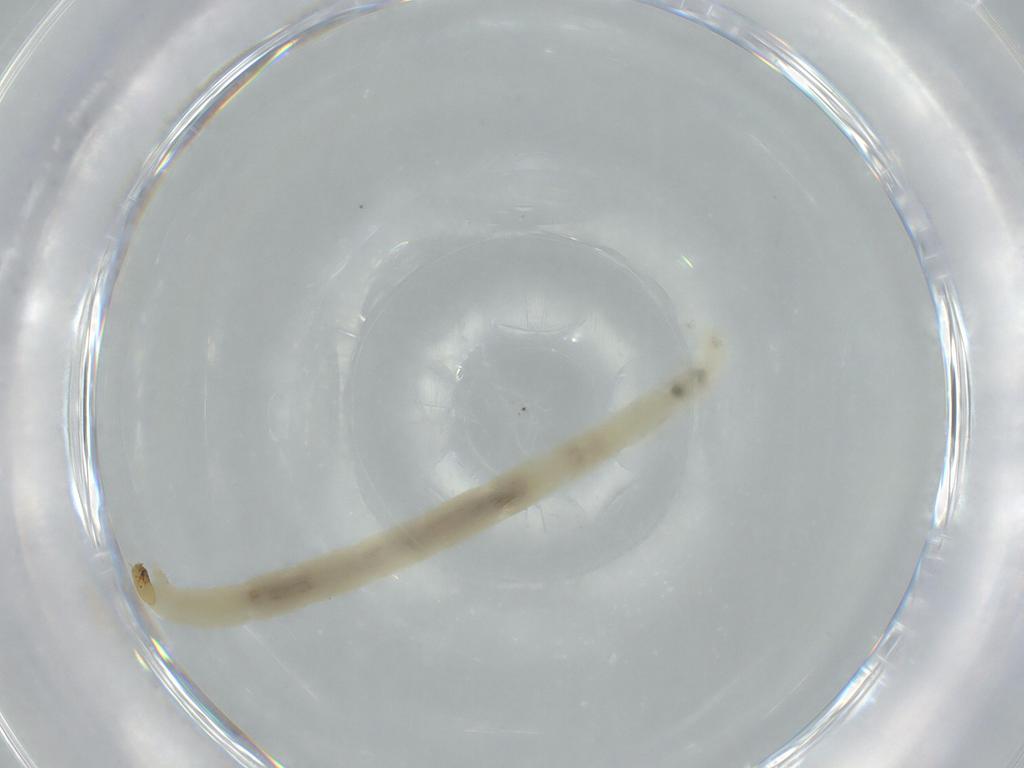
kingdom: Animalia
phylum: Arthropoda
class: Insecta
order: Diptera
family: Chironomidae
